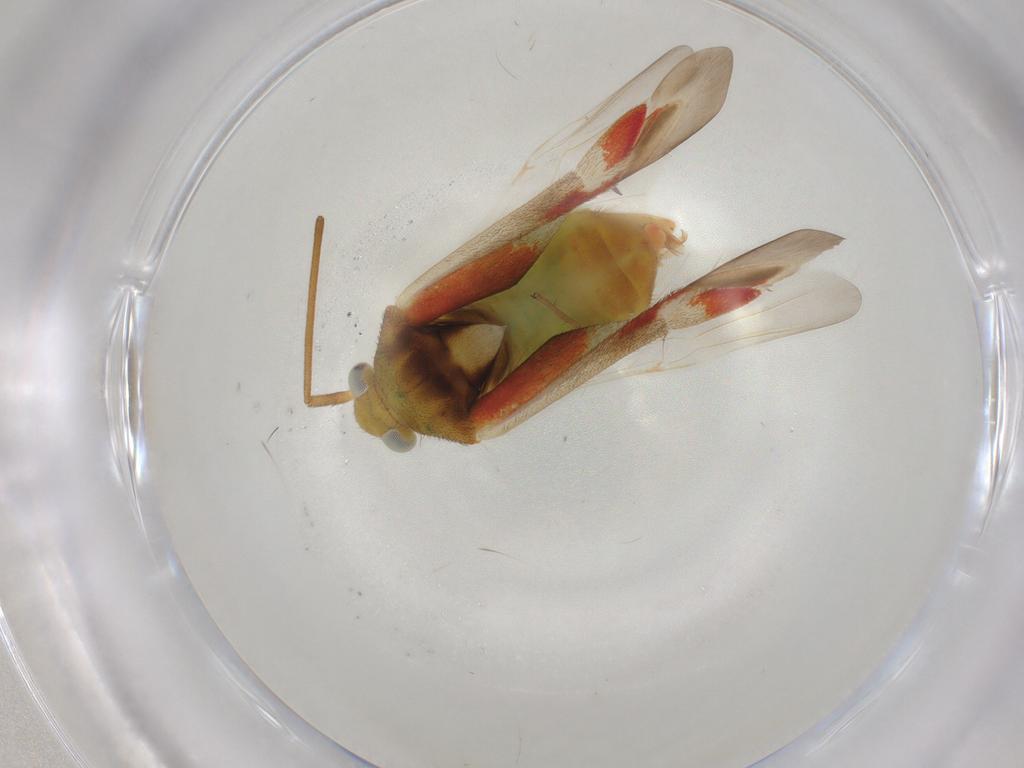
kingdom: Animalia
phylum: Arthropoda
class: Insecta
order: Hemiptera
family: Miridae
